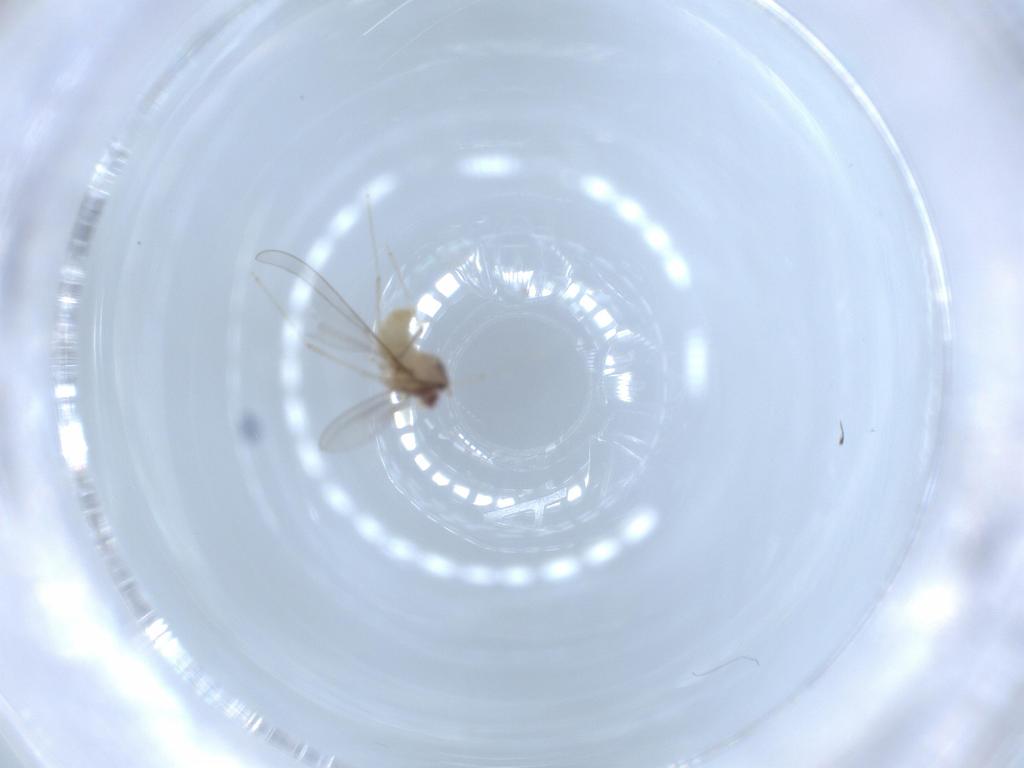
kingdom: Animalia
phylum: Arthropoda
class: Insecta
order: Diptera
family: Cecidomyiidae
